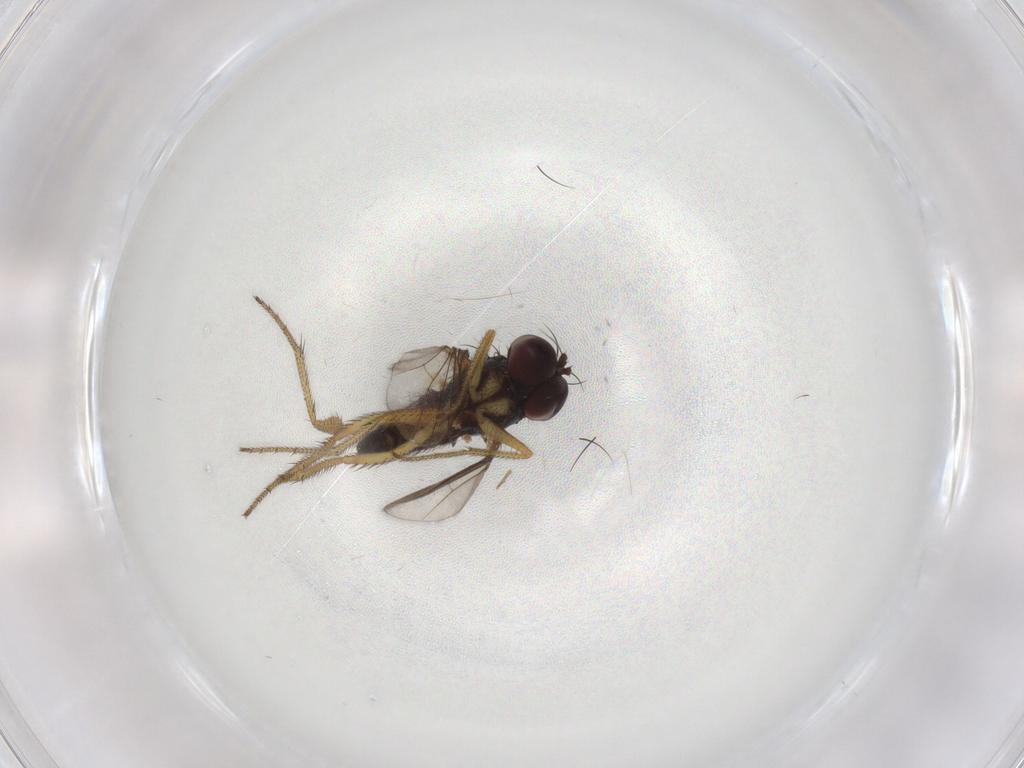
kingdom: Animalia
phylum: Arthropoda
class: Insecta
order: Diptera
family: Dolichopodidae
